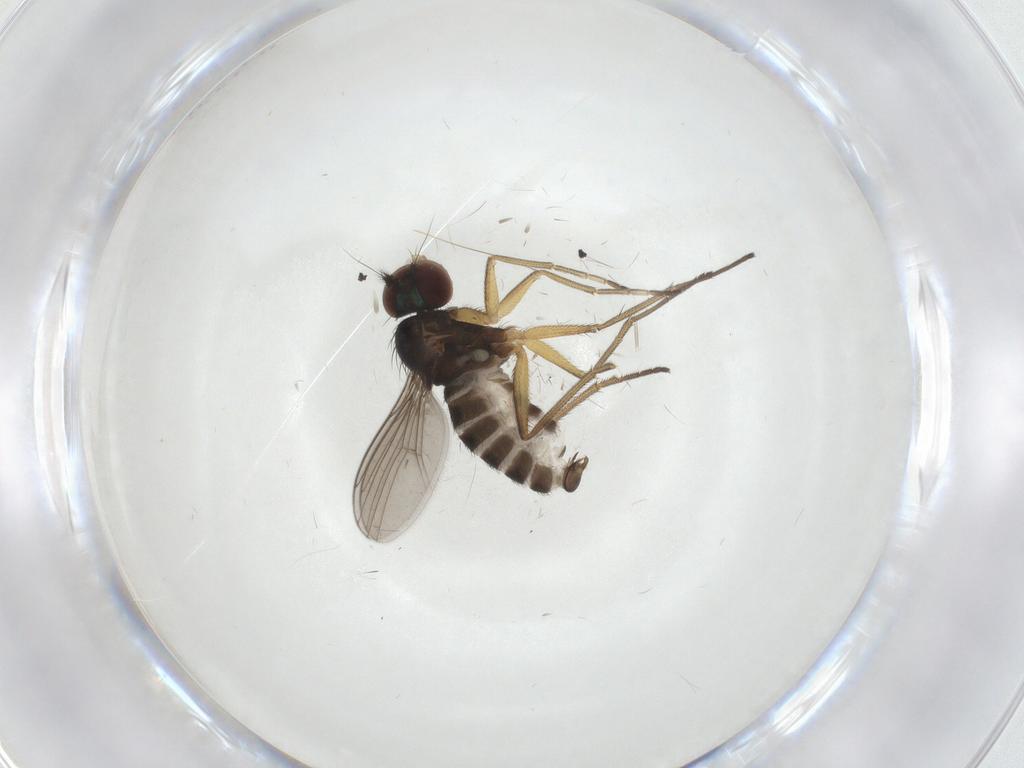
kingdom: Animalia
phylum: Arthropoda
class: Insecta
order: Diptera
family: Dolichopodidae
